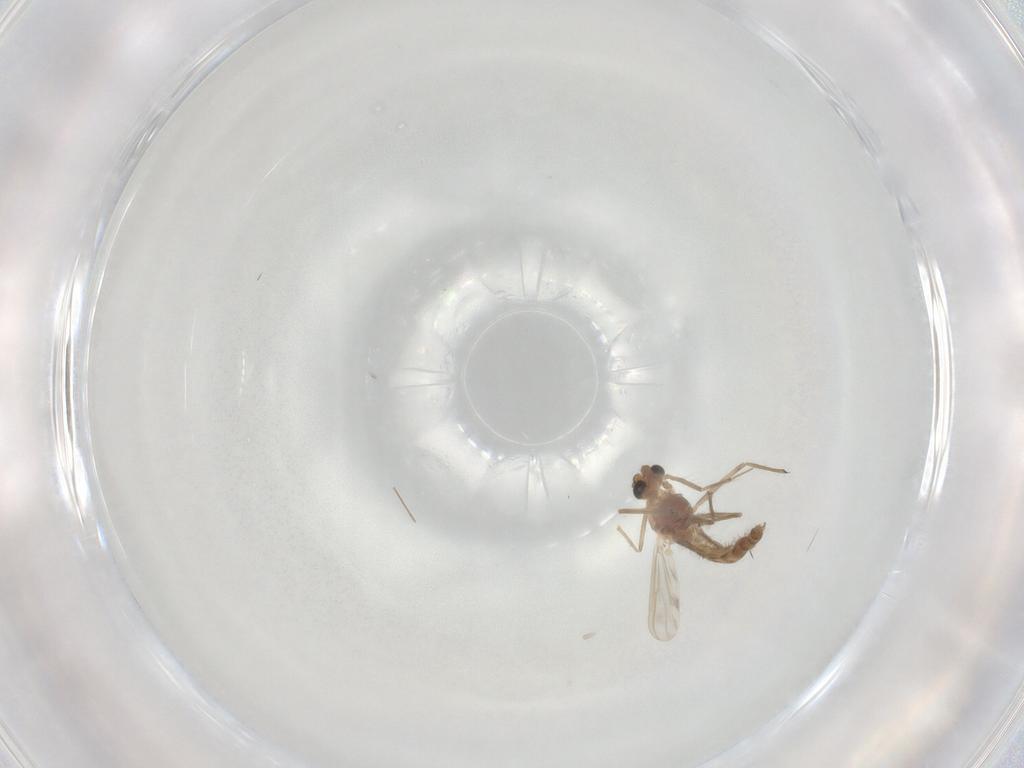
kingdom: Animalia
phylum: Arthropoda
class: Insecta
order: Diptera
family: Chironomidae
